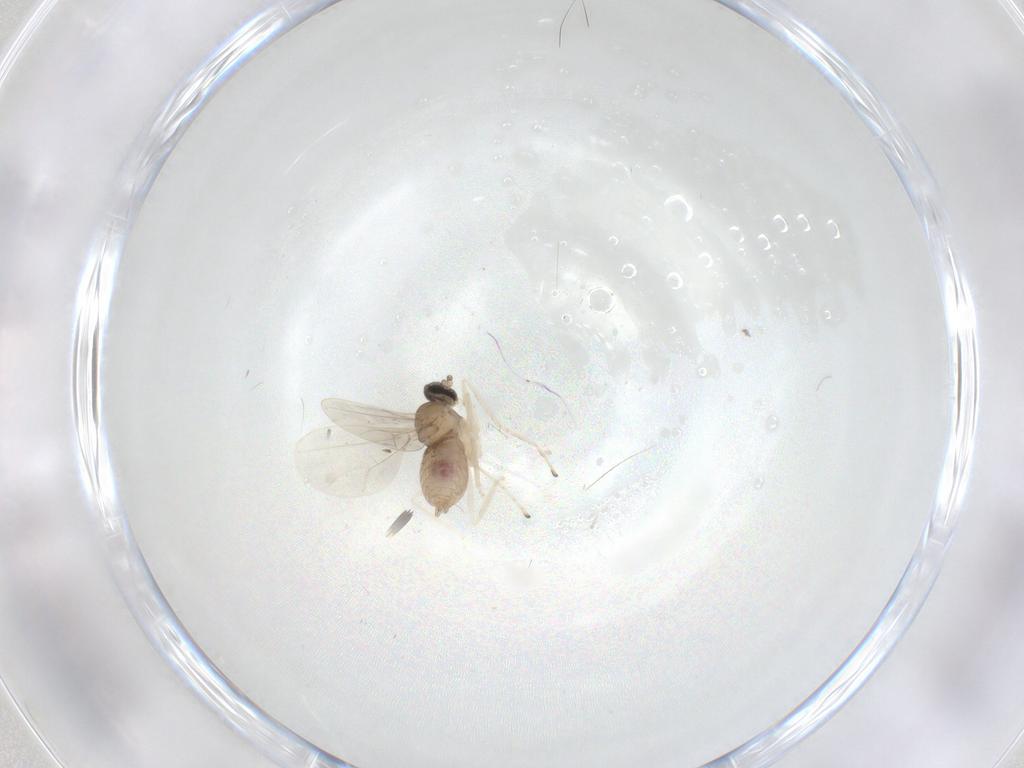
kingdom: Animalia
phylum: Arthropoda
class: Insecta
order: Diptera
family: Cecidomyiidae
